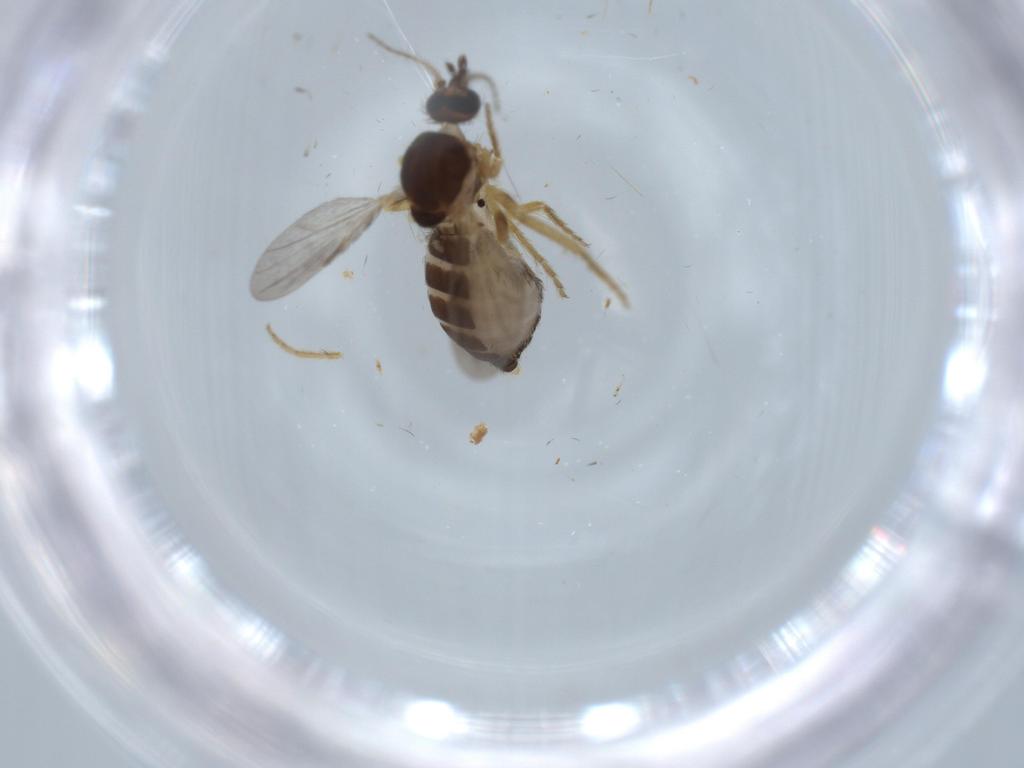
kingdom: Animalia
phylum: Arthropoda
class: Insecta
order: Diptera
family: Ceratopogonidae
